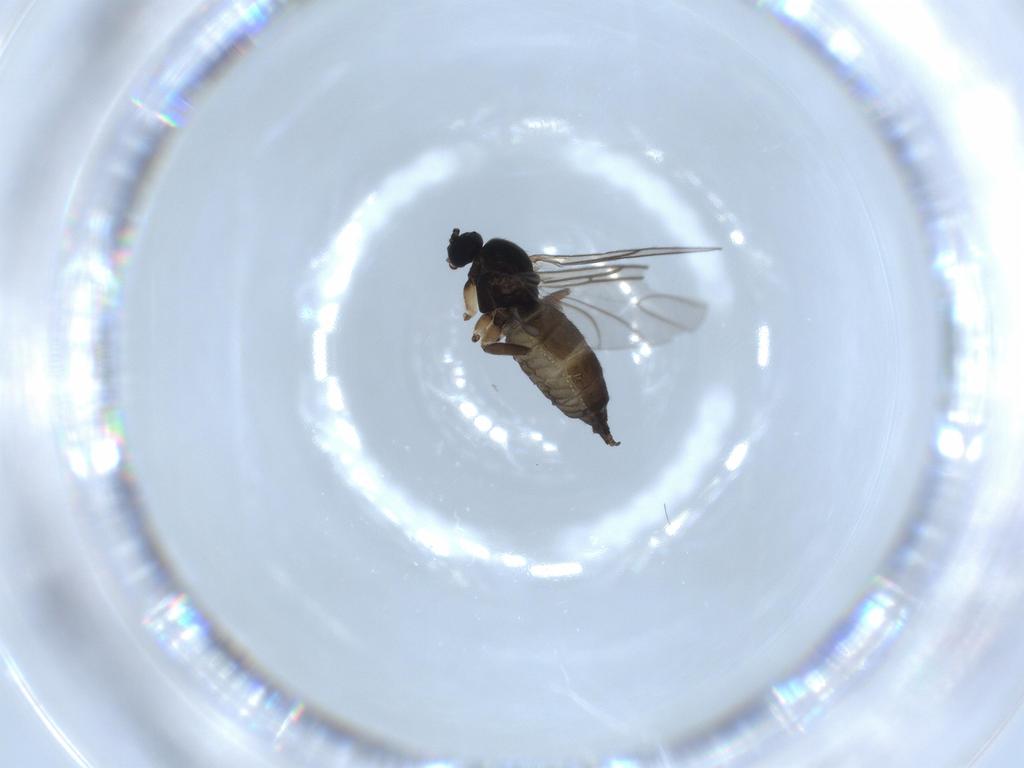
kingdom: Animalia
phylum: Arthropoda
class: Insecta
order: Diptera
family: Sciaridae
